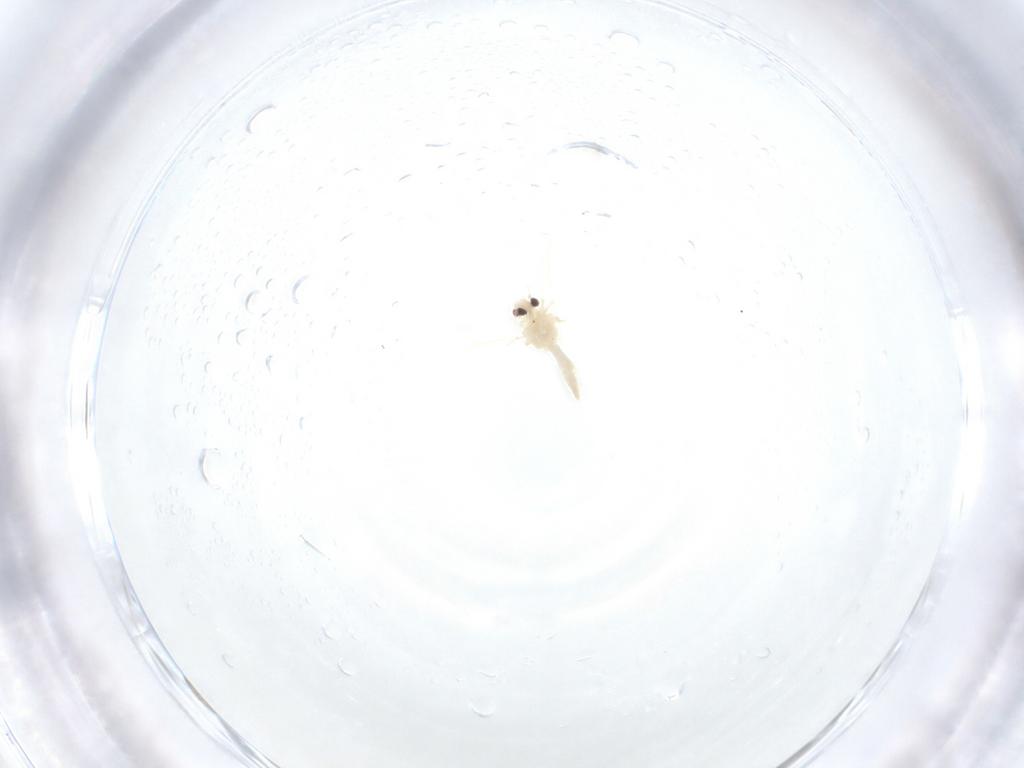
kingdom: Animalia
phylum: Arthropoda
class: Insecta
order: Hemiptera
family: Aleyrodidae
